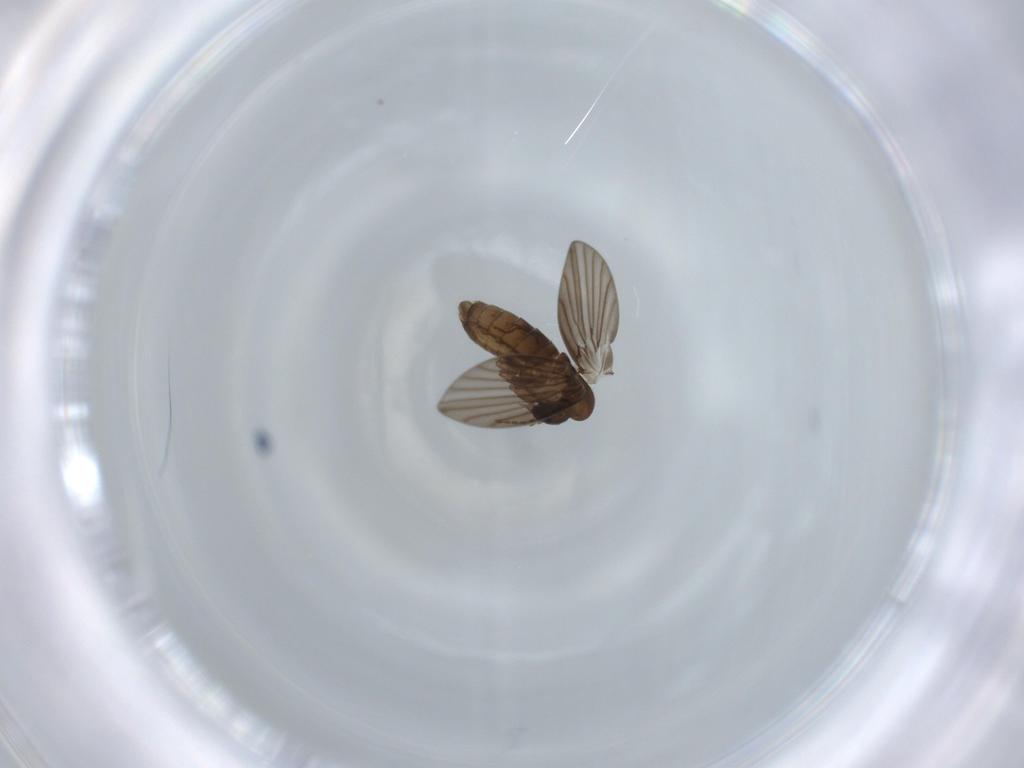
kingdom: Animalia
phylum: Arthropoda
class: Insecta
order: Diptera
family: Psychodidae
